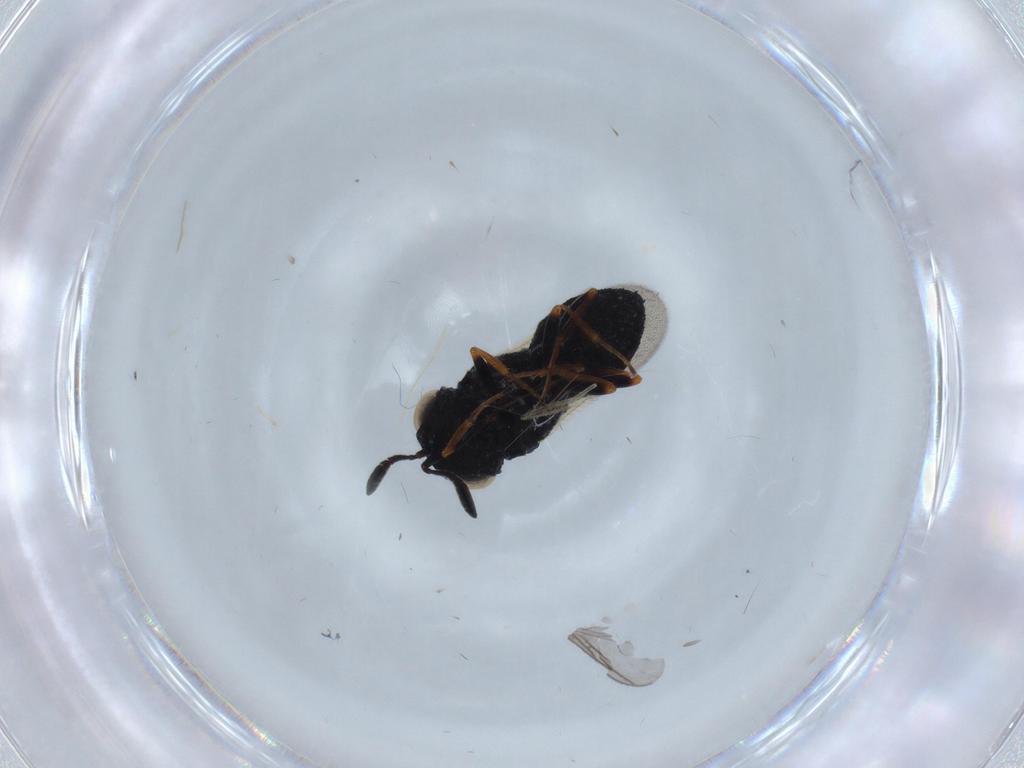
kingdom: Animalia
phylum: Arthropoda
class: Insecta
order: Hymenoptera
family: Scelionidae
